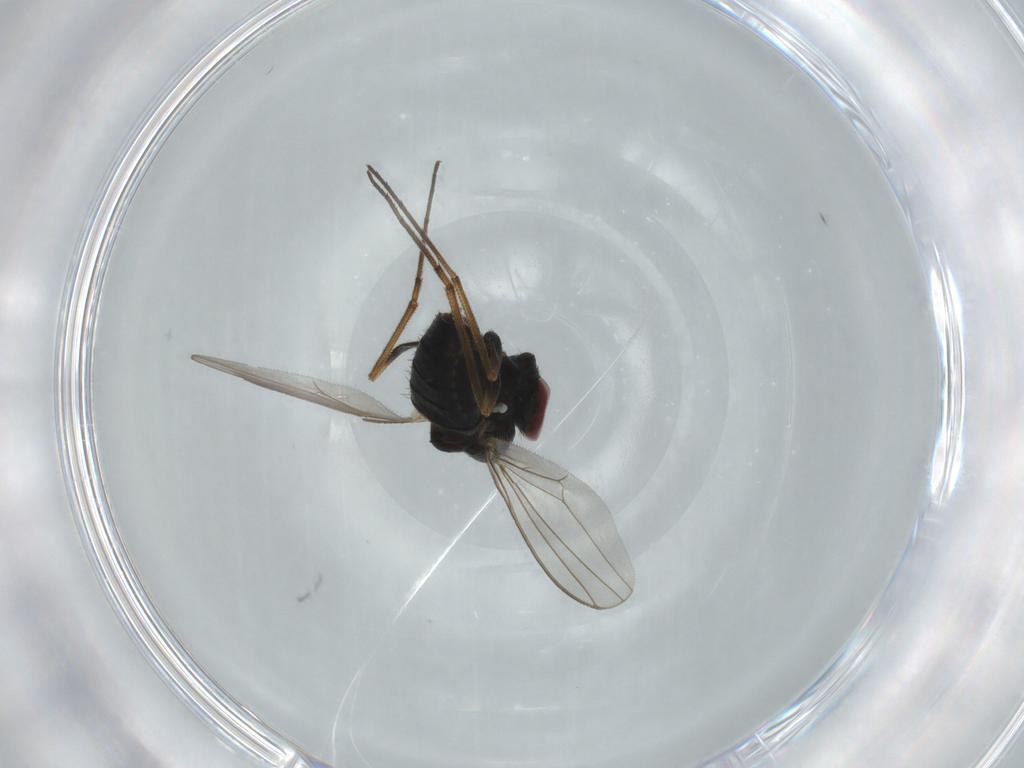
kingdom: Animalia
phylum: Arthropoda
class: Insecta
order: Diptera
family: Dolichopodidae
